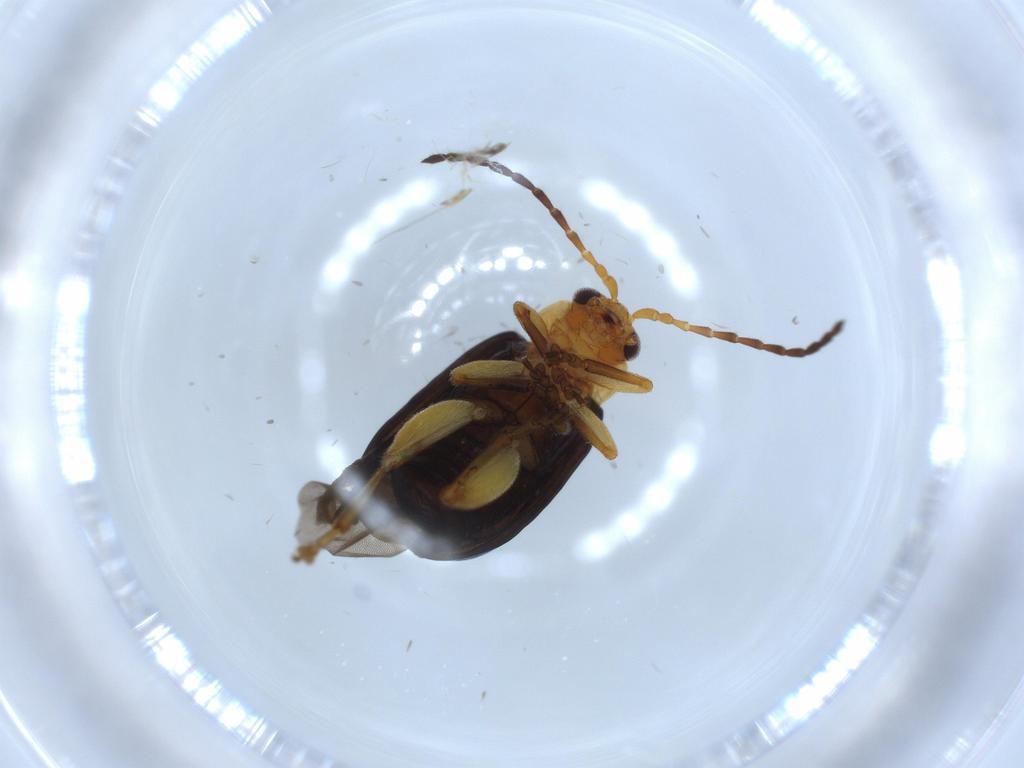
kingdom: Animalia
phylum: Arthropoda
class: Insecta
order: Coleoptera
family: Chrysomelidae
